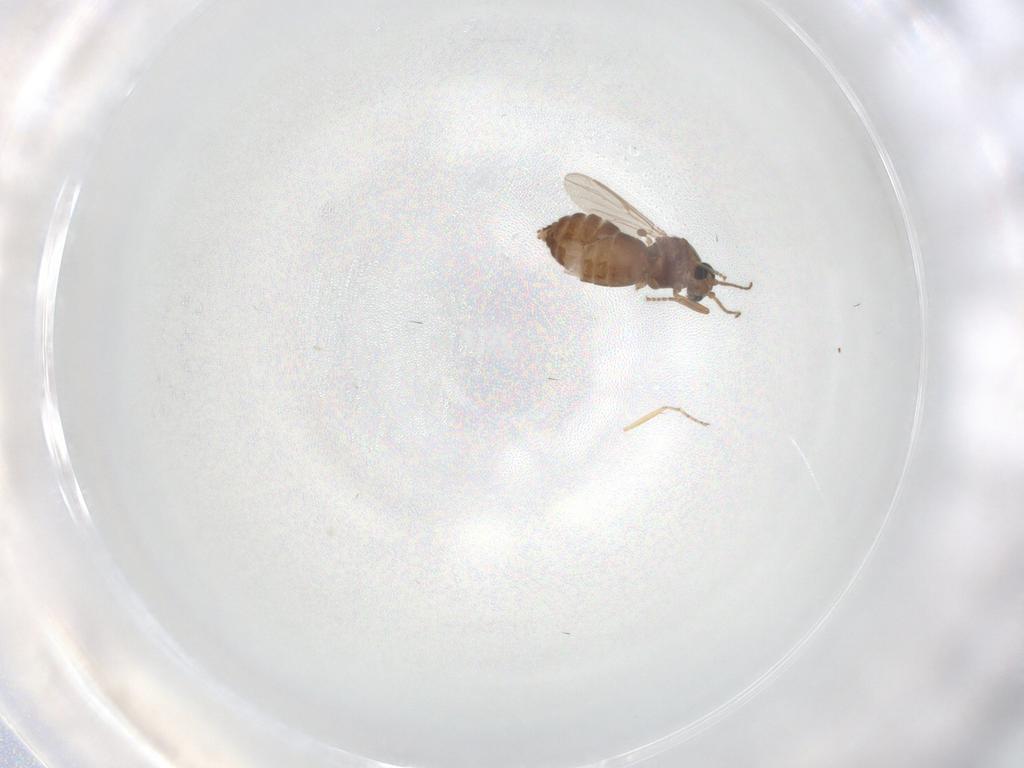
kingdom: Animalia
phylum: Arthropoda
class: Insecta
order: Diptera
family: Ceratopogonidae
